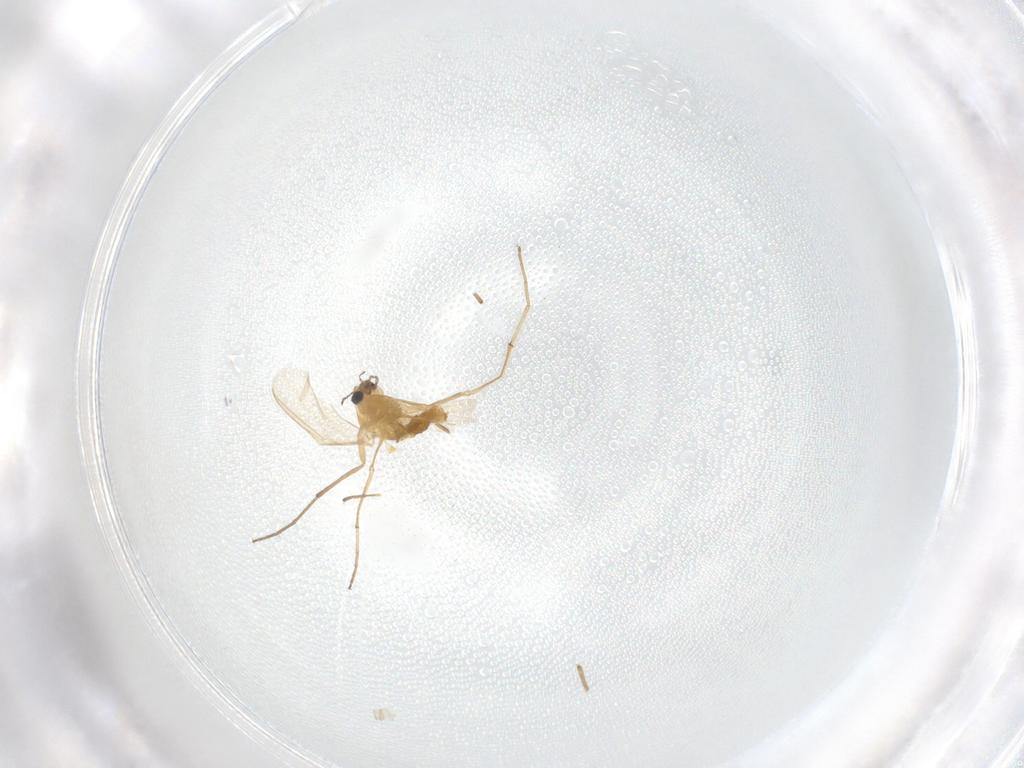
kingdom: Animalia
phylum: Arthropoda
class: Insecta
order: Diptera
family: Chironomidae
